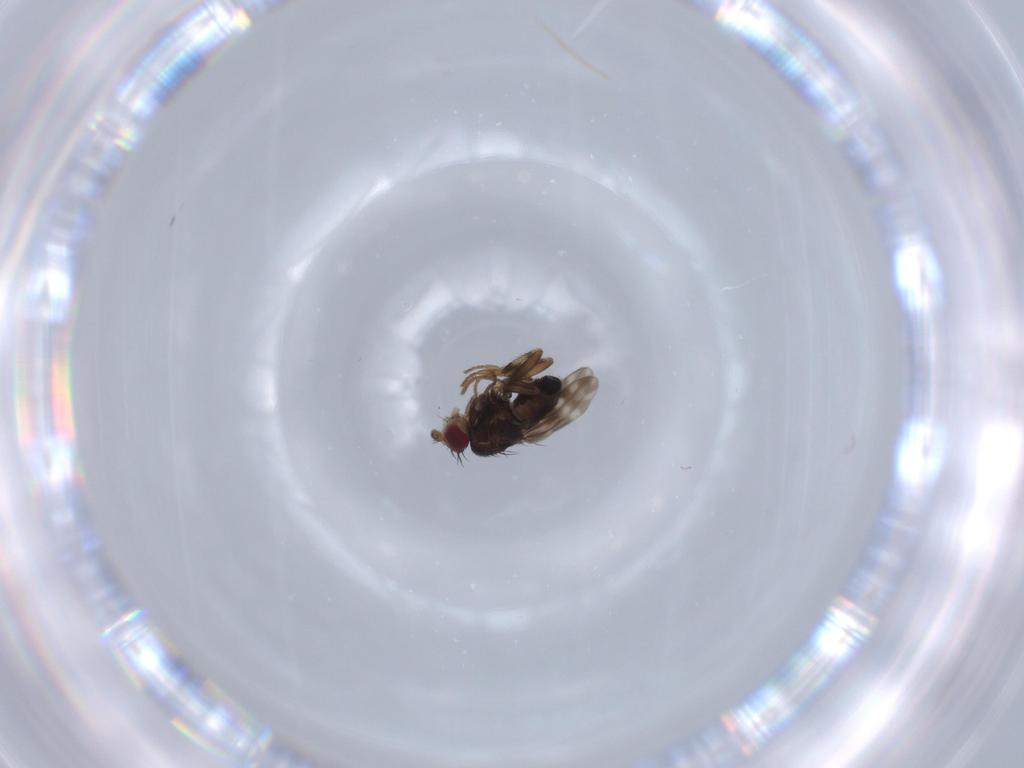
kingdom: Animalia
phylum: Arthropoda
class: Insecta
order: Diptera
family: Sphaeroceridae
